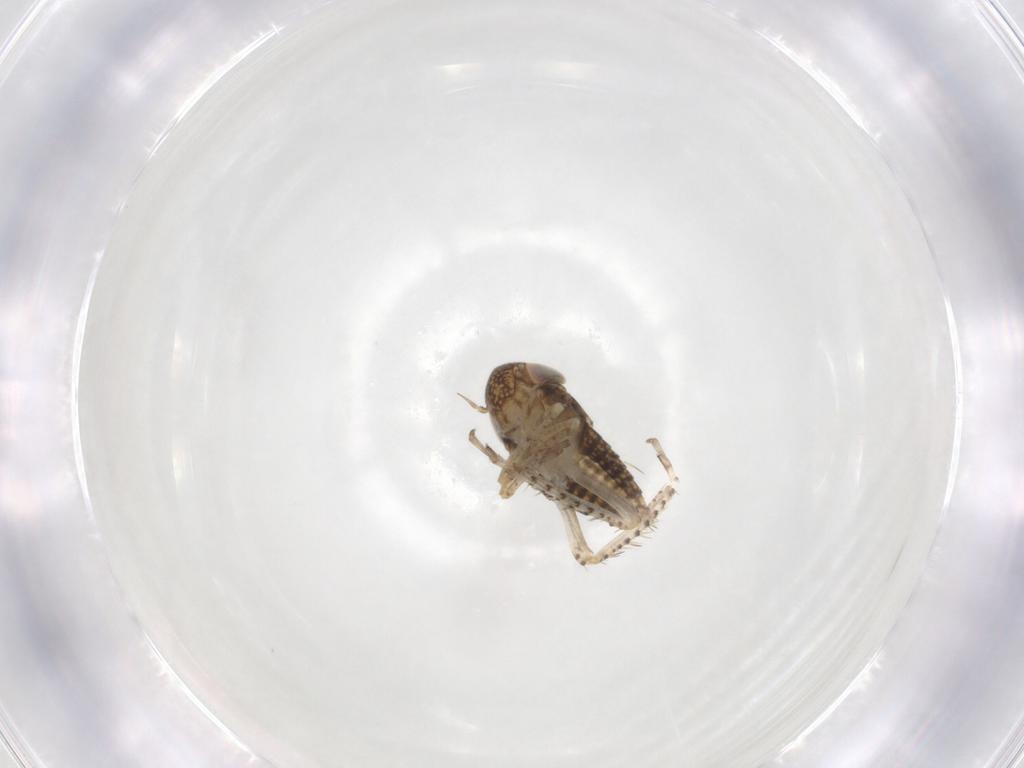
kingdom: Animalia
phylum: Arthropoda
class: Insecta
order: Hemiptera
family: Cicadellidae
